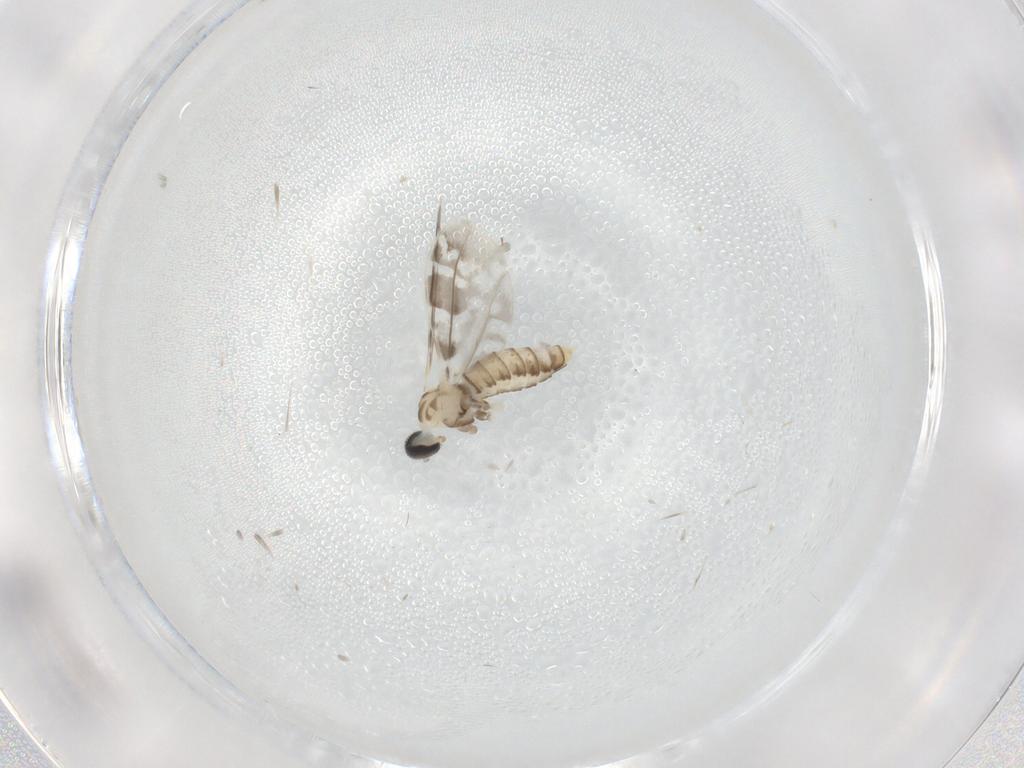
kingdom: Animalia
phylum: Arthropoda
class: Insecta
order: Diptera
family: Cecidomyiidae
